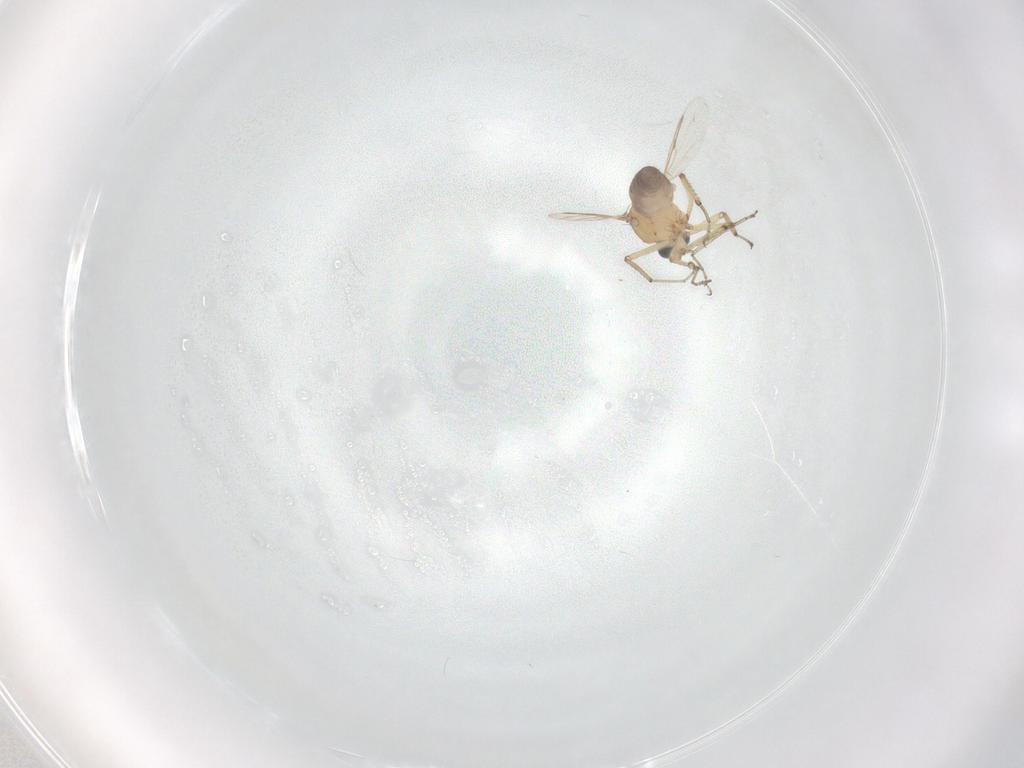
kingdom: Animalia
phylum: Arthropoda
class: Insecta
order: Diptera
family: Ceratopogonidae
